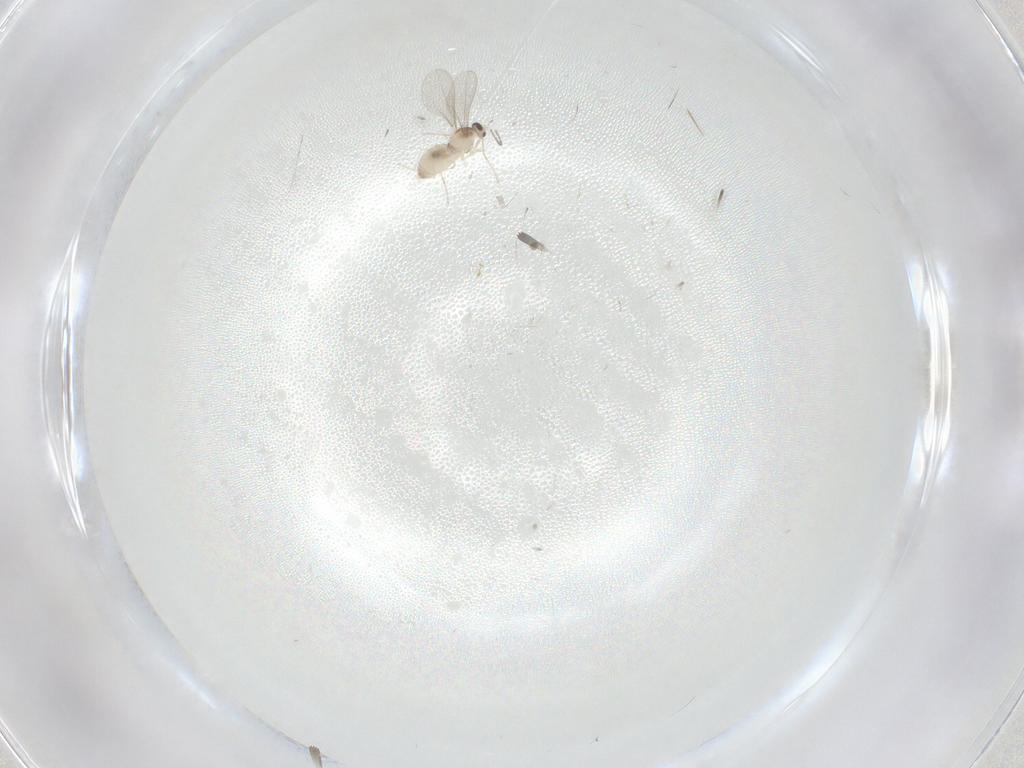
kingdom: Animalia
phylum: Arthropoda
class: Insecta
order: Diptera
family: Cecidomyiidae
